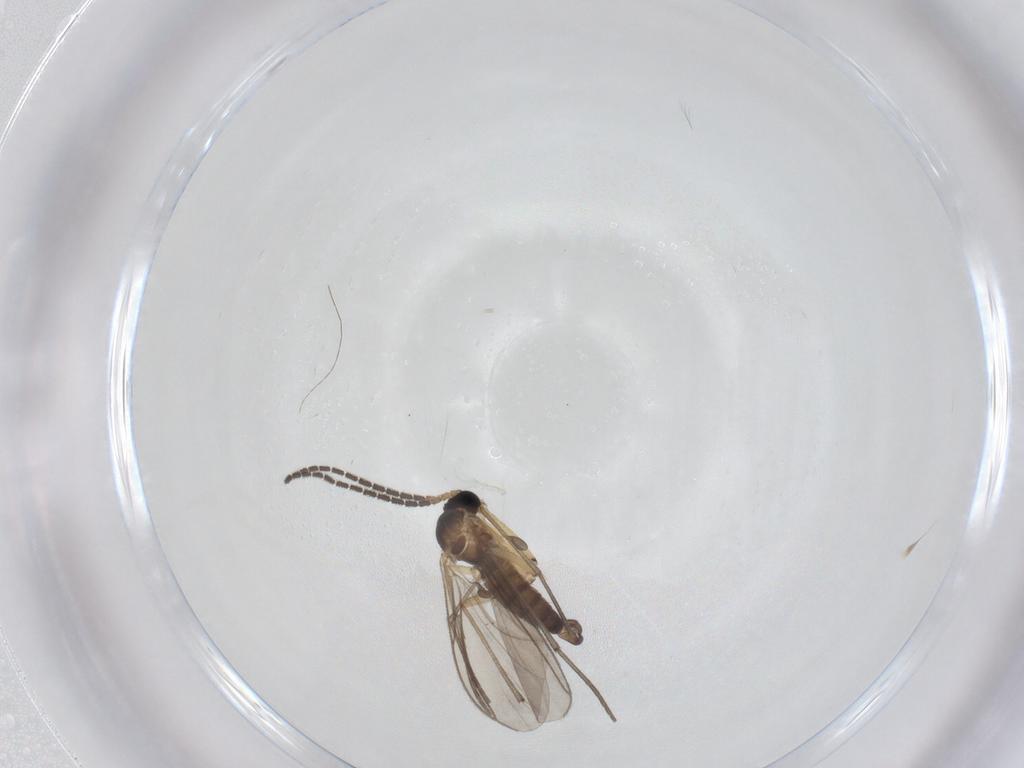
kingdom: Animalia
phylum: Arthropoda
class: Insecta
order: Diptera
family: Sciaridae
